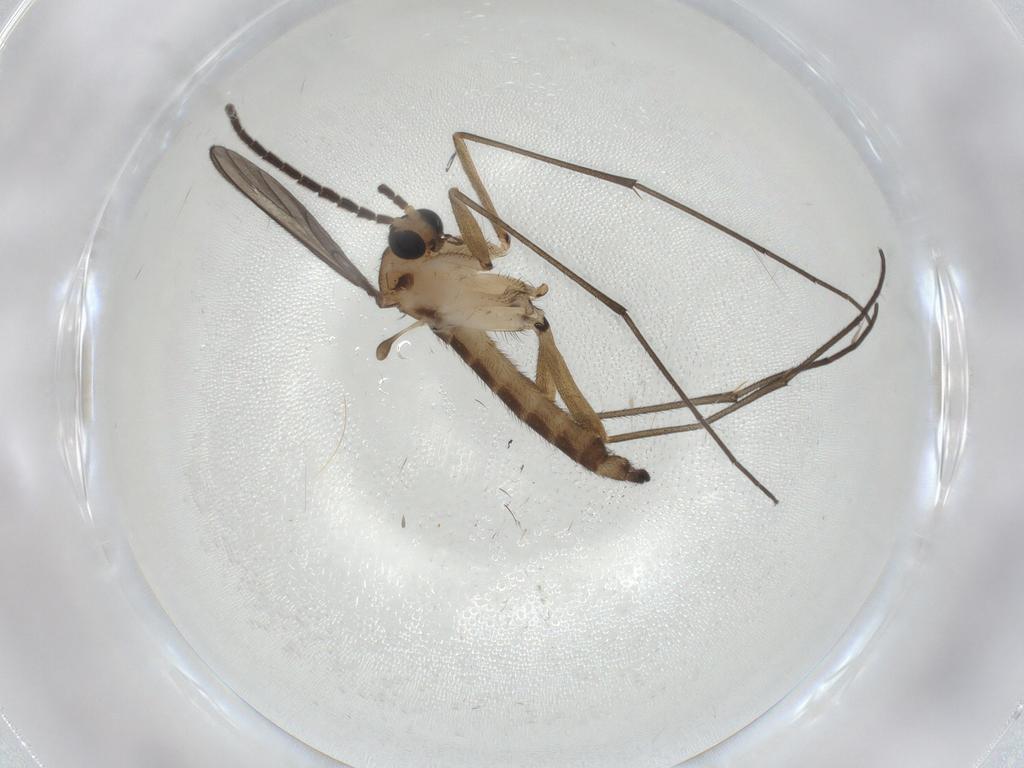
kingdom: Animalia
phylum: Arthropoda
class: Insecta
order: Diptera
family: Sciaridae
